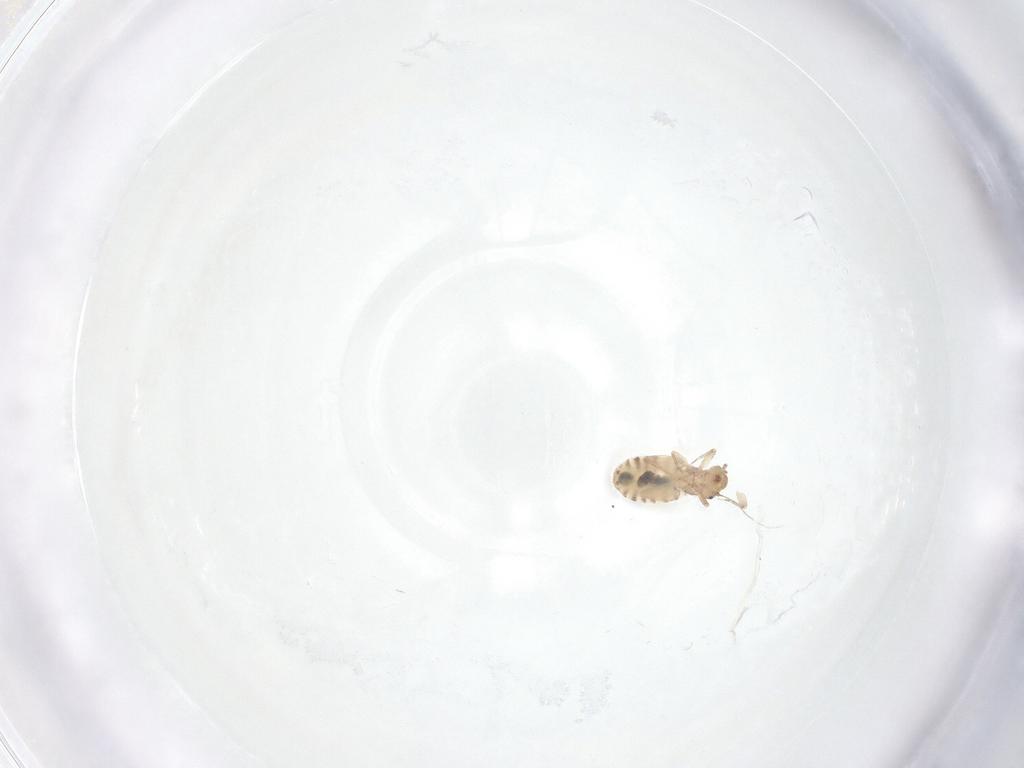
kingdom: Animalia
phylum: Arthropoda
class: Insecta
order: Psocodea
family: Liposcelididae
